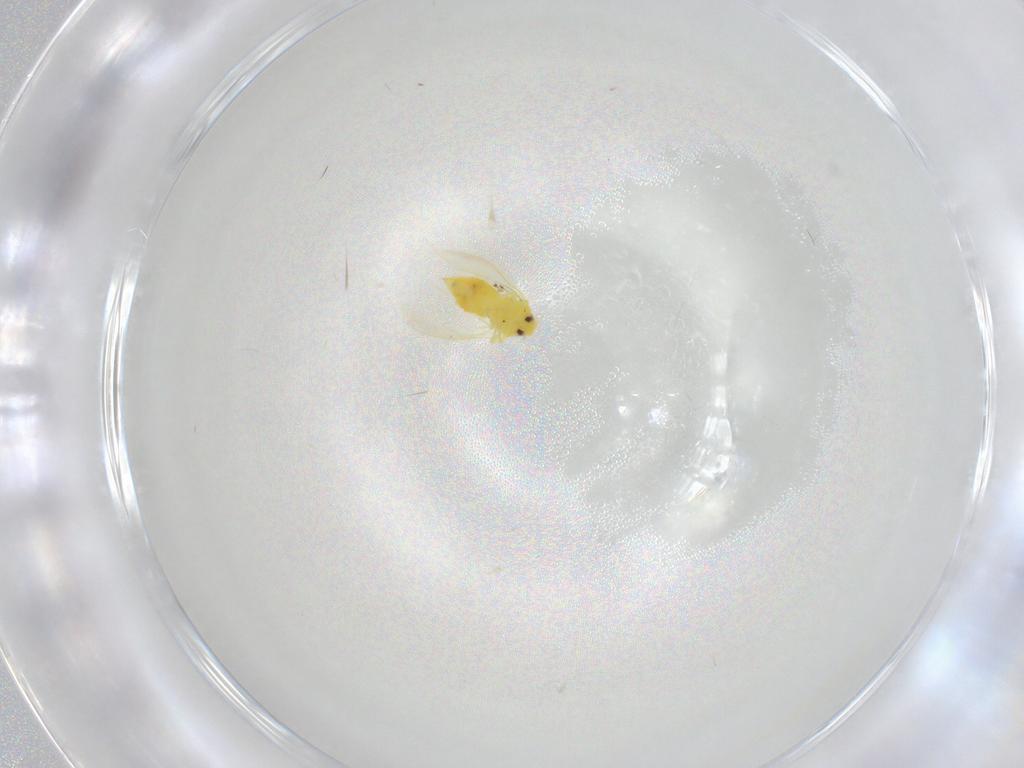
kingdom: Animalia
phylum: Arthropoda
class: Insecta
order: Hemiptera
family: Aleyrodidae
